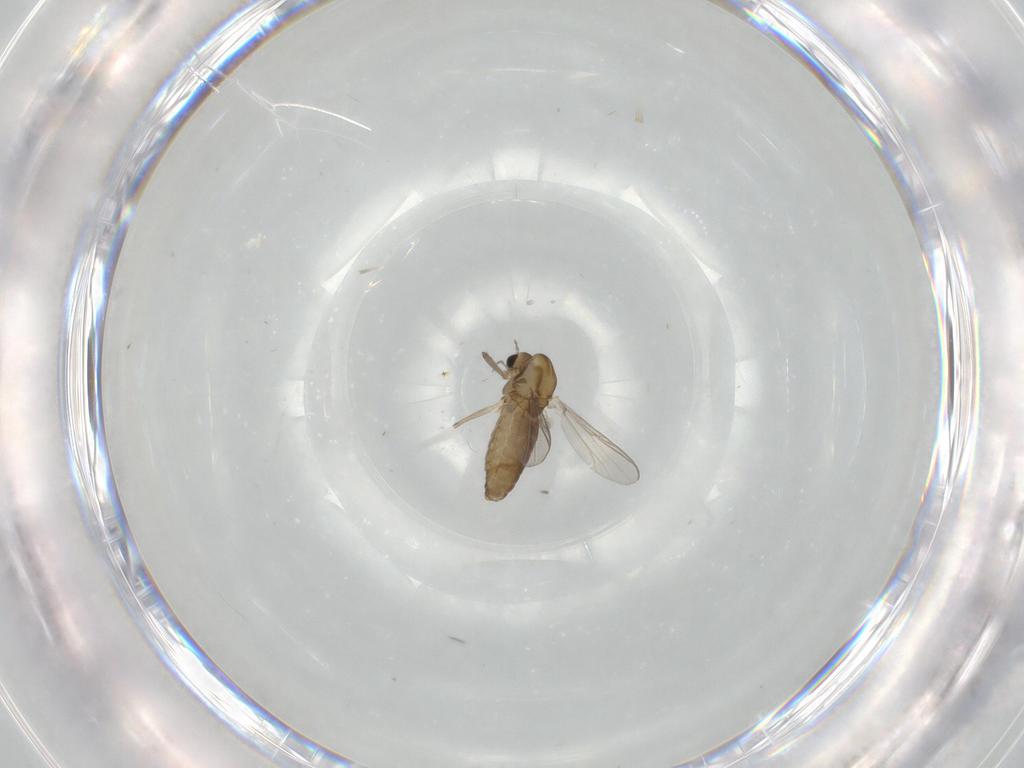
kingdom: Animalia
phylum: Arthropoda
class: Insecta
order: Diptera
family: Chironomidae
